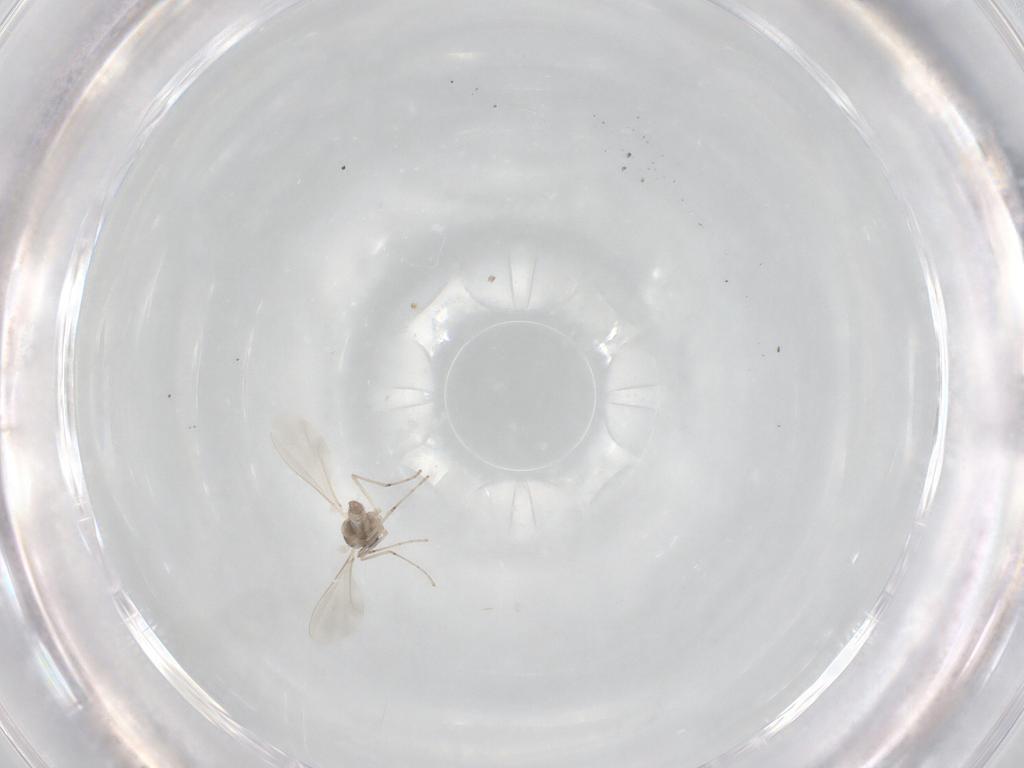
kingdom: Animalia
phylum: Arthropoda
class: Insecta
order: Diptera
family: Cecidomyiidae
